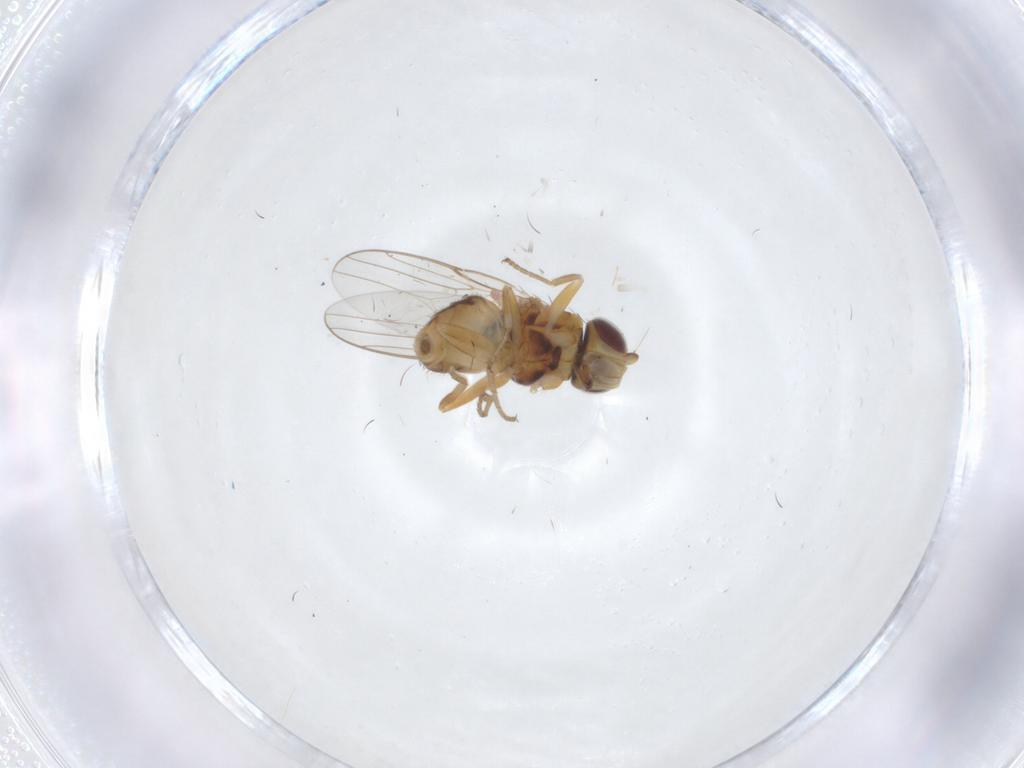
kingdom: Animalia
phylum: Arthropoda
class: Insecta
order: Diptera
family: Chloropidae
